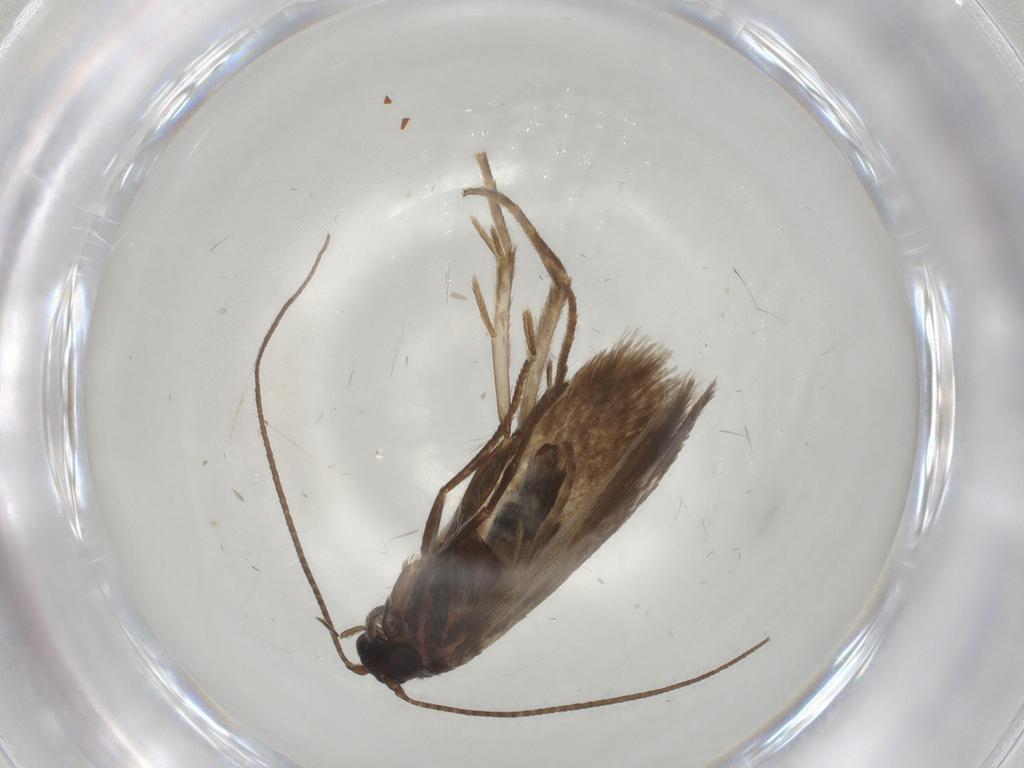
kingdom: Animalia
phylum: Arthropoda
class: Insecta
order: Lepidoptera
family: Adelidae
